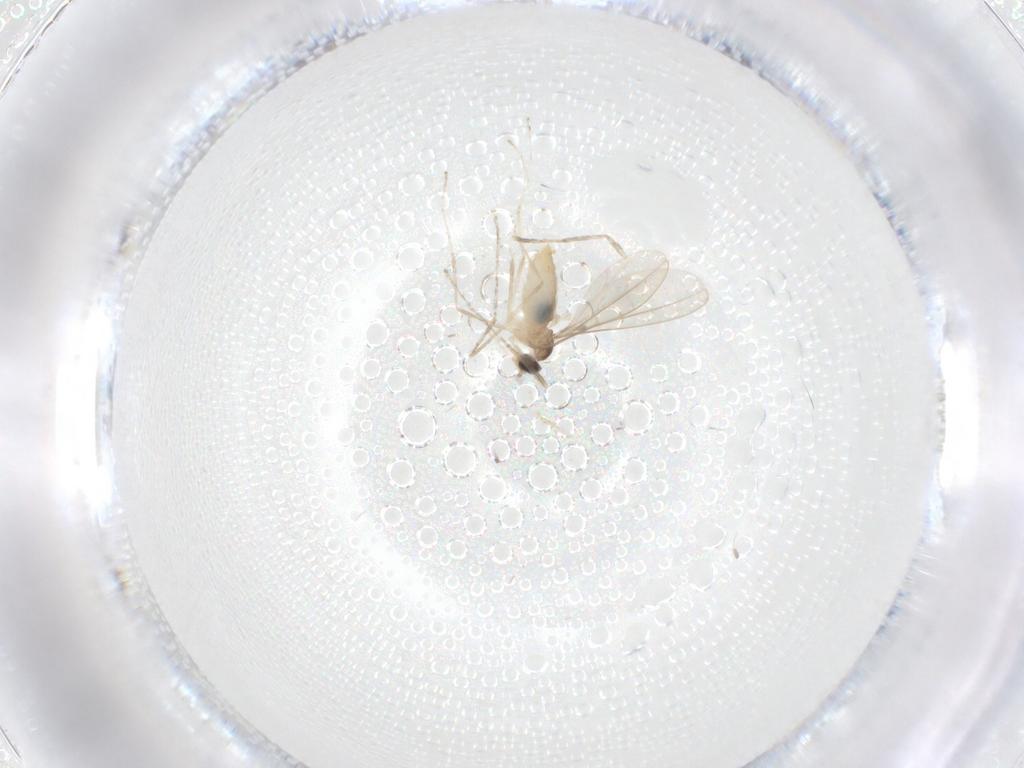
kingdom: Animalia
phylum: Arthropoda
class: Insecta
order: Diptera
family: Cecidomyiidae
